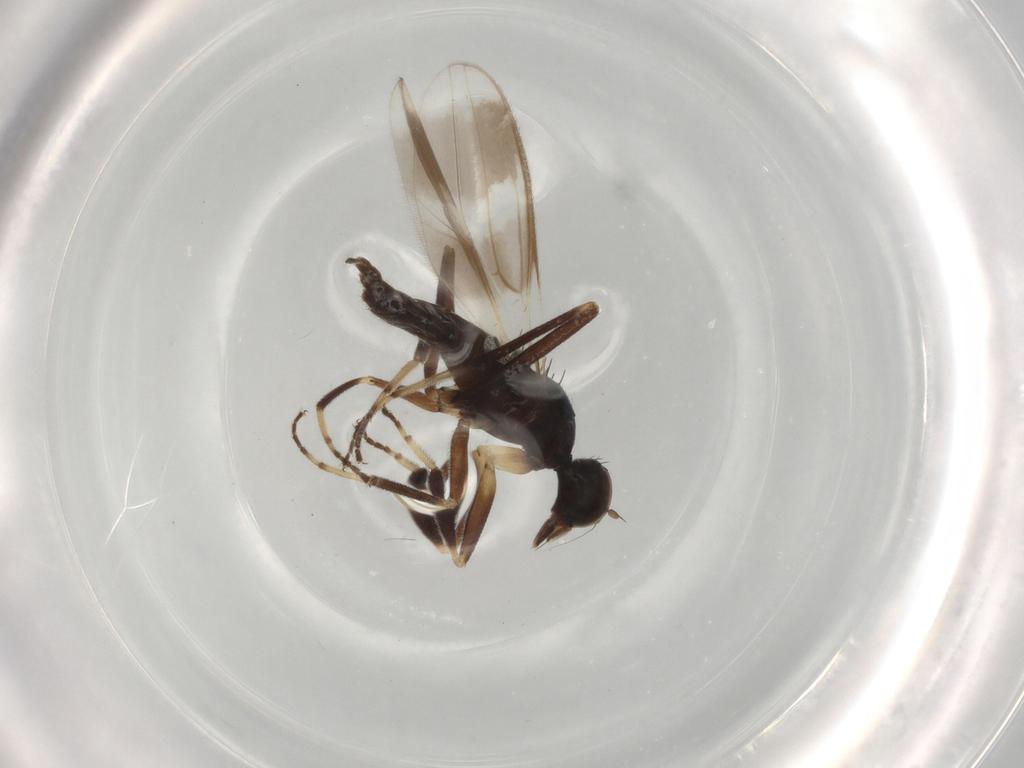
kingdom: Animalia
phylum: Arthropoda
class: Insecta
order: Diptera
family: Hybotidae
